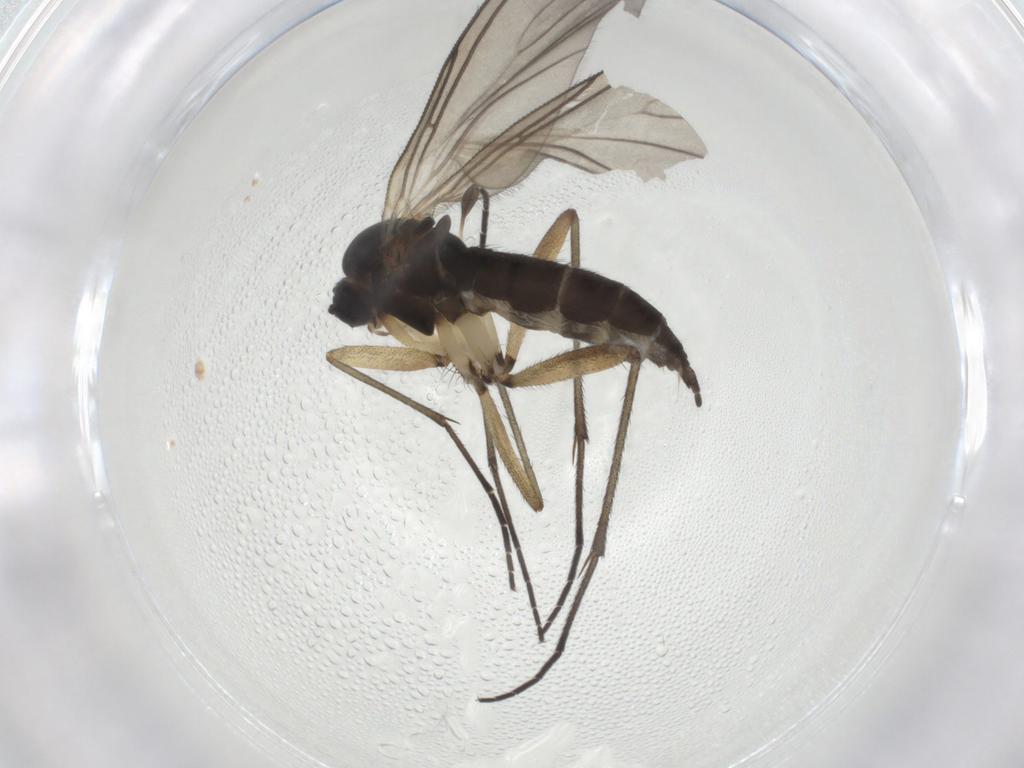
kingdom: Animalia
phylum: Arthropoda
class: Insecta
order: Diptera
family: Sciaridae
